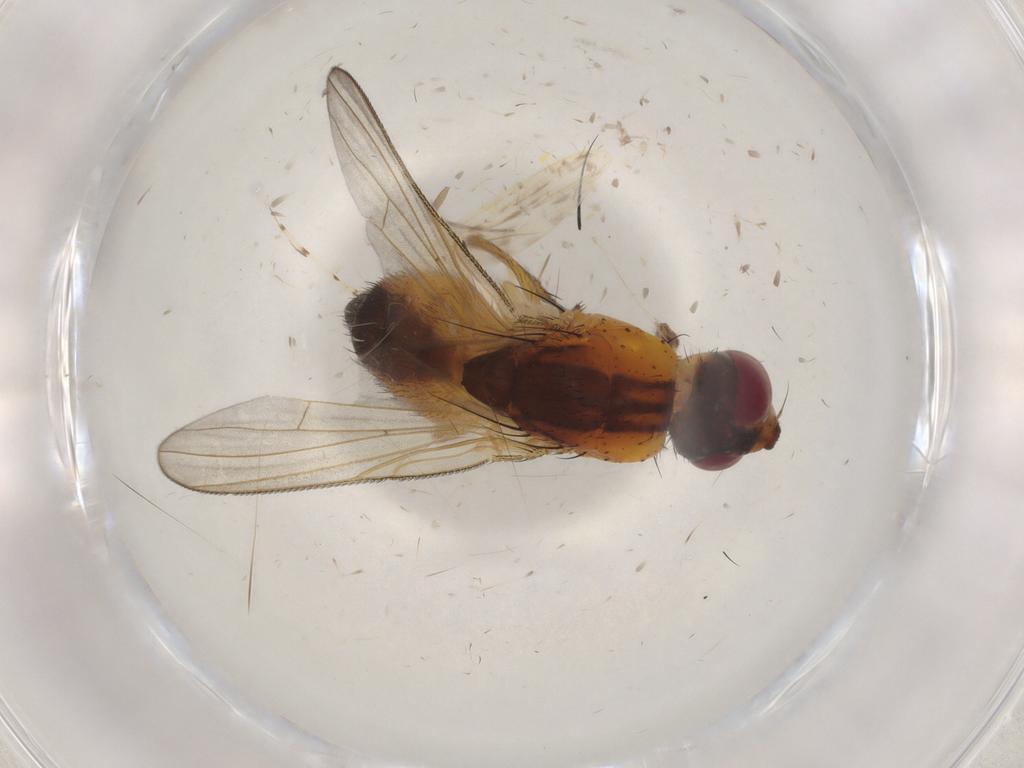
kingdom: Animalia
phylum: Arthropoda
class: Insecta
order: Diptera
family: Muscidae
